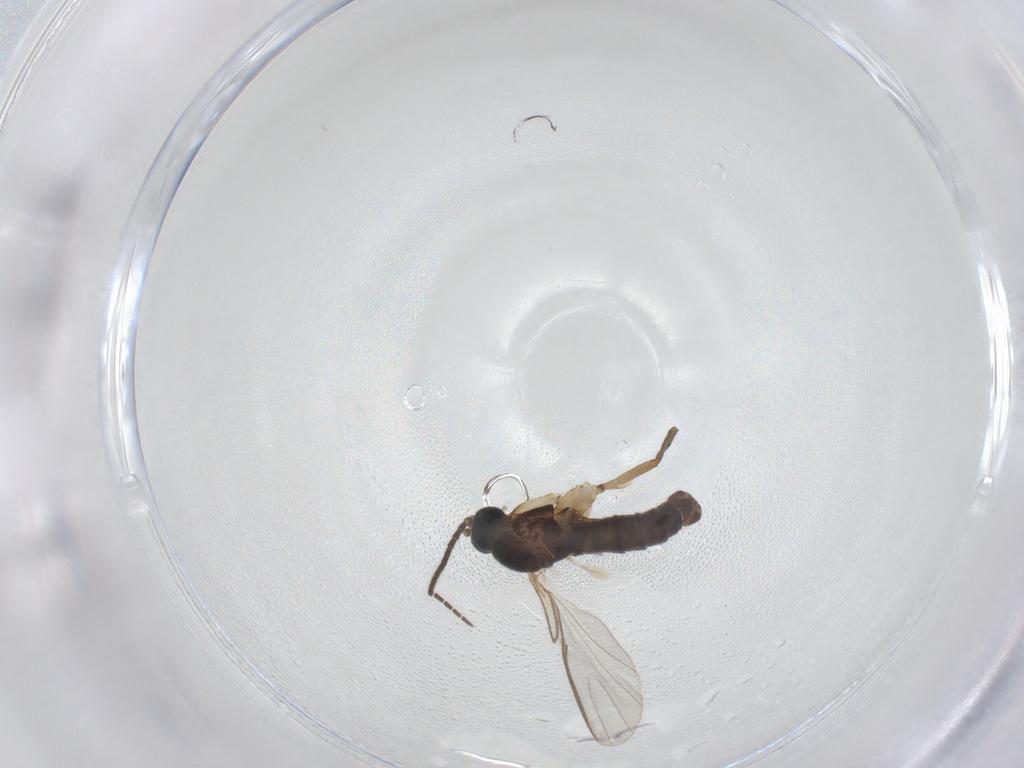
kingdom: Animalia
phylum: Arthropoda
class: Insecta
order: Diptera
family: Sciaridae
